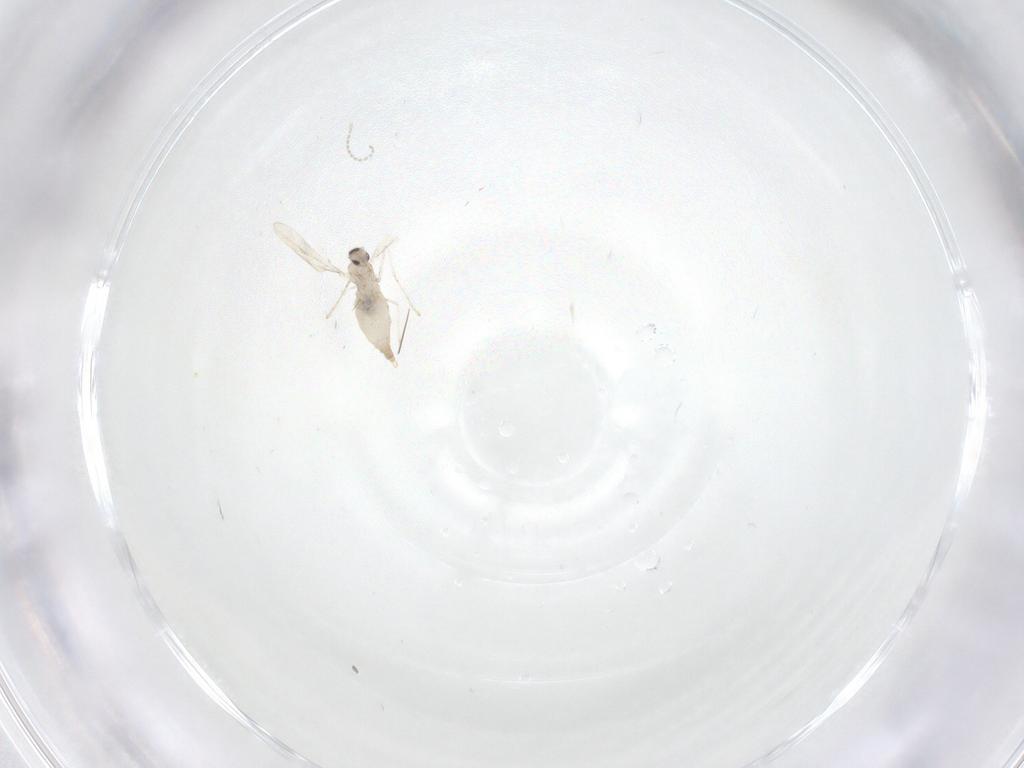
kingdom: Animalia
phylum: Arthropoda
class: Insecta
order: Diptera
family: Cecidomyiidae
